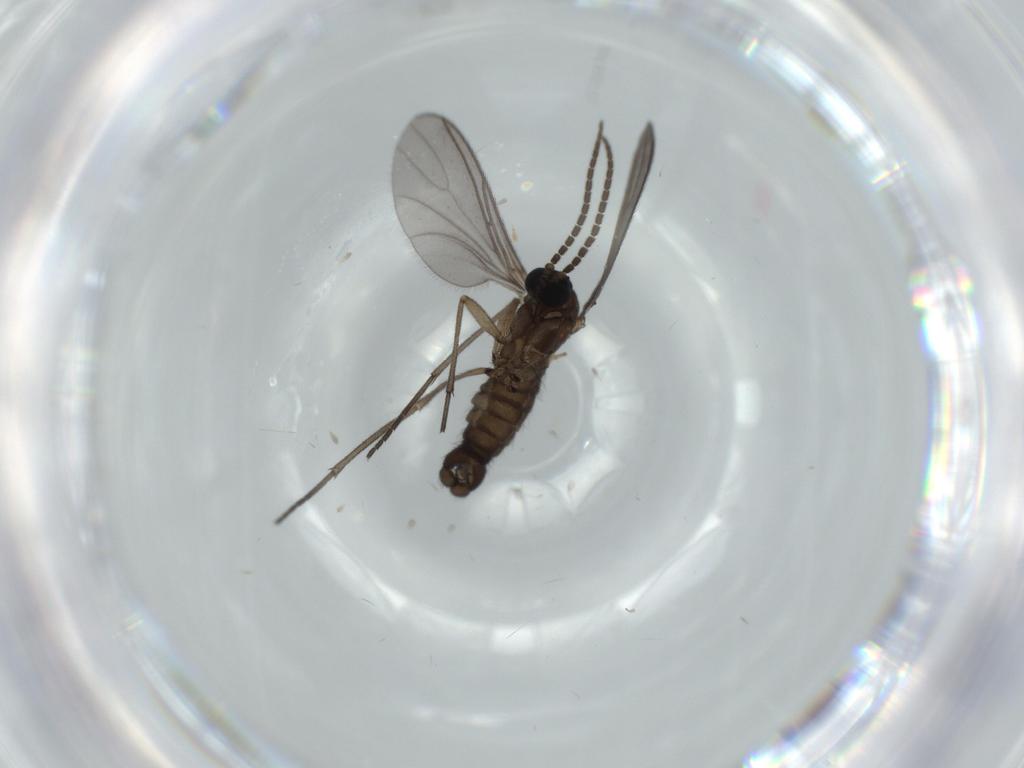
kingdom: Animalia
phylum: Arthropoda
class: Insecta
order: Diptera
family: Sciaridae
